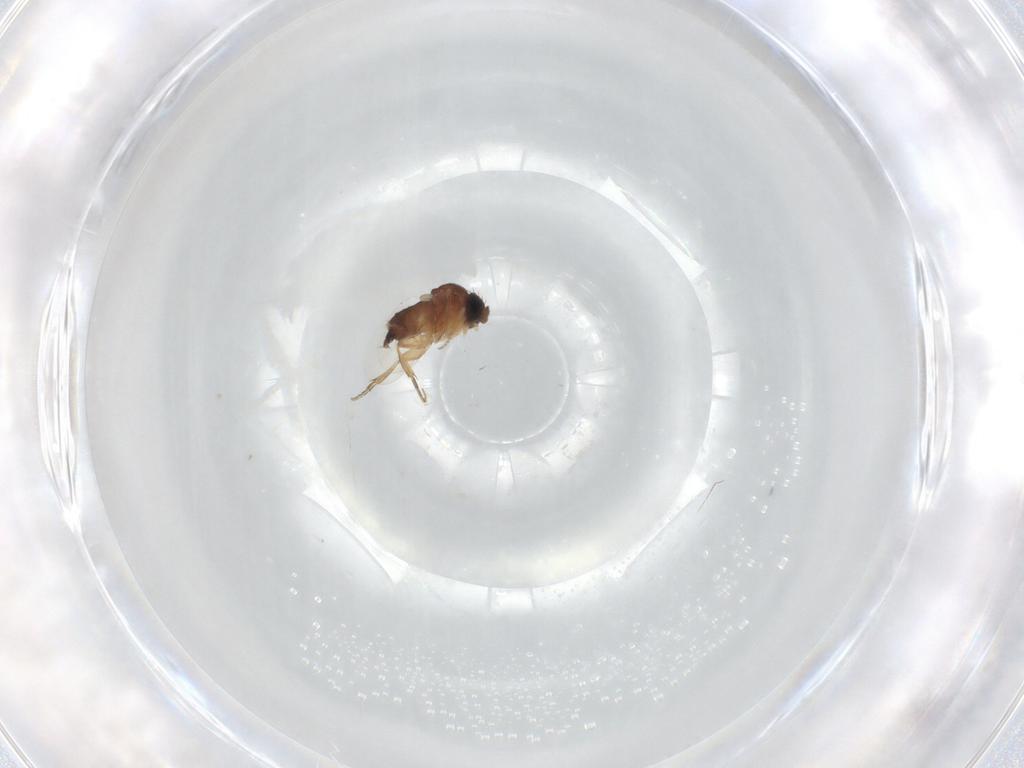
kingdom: Animalia
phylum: Arthropoda
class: Insecta
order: Diptera
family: Phoridae
